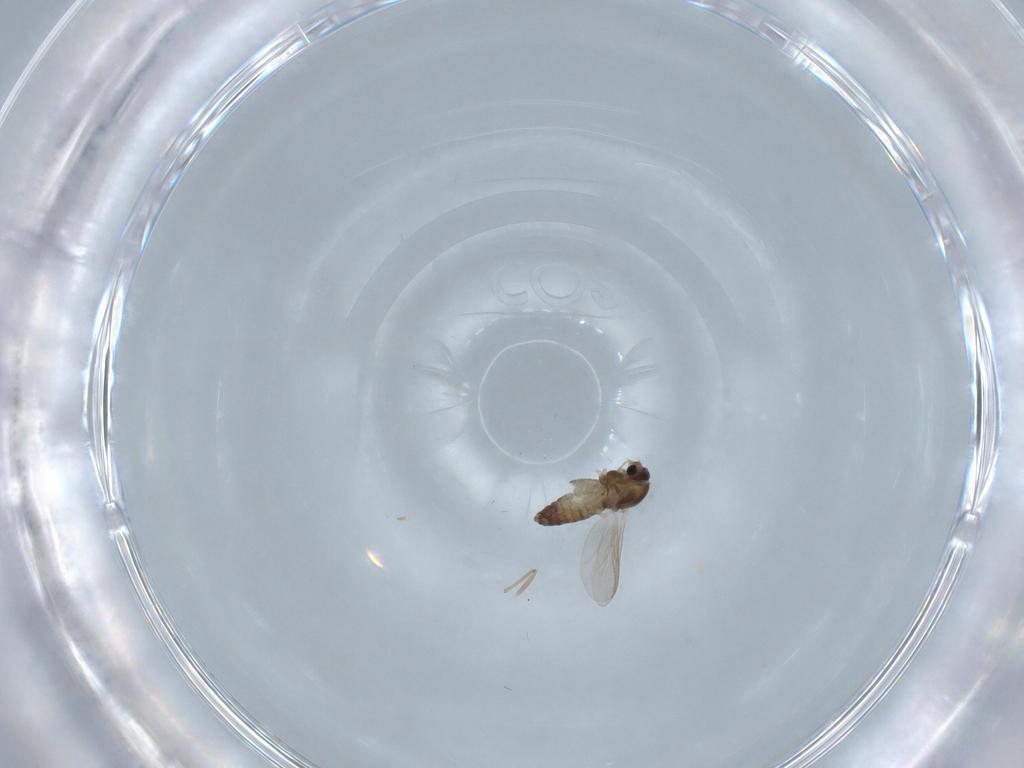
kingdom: Animalia
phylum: Arthropoda
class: Insecta
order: Diptera
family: Chironomidae
